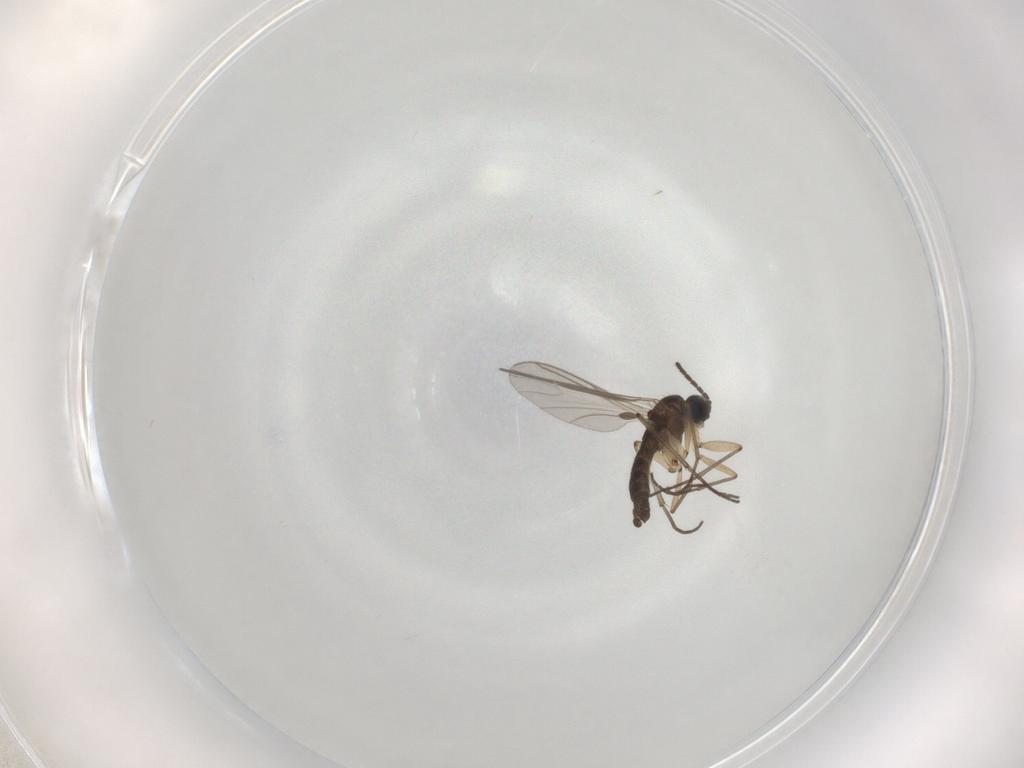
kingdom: Animalia
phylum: Arthropoda
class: Insecta
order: Diptera
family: Sciaridae
